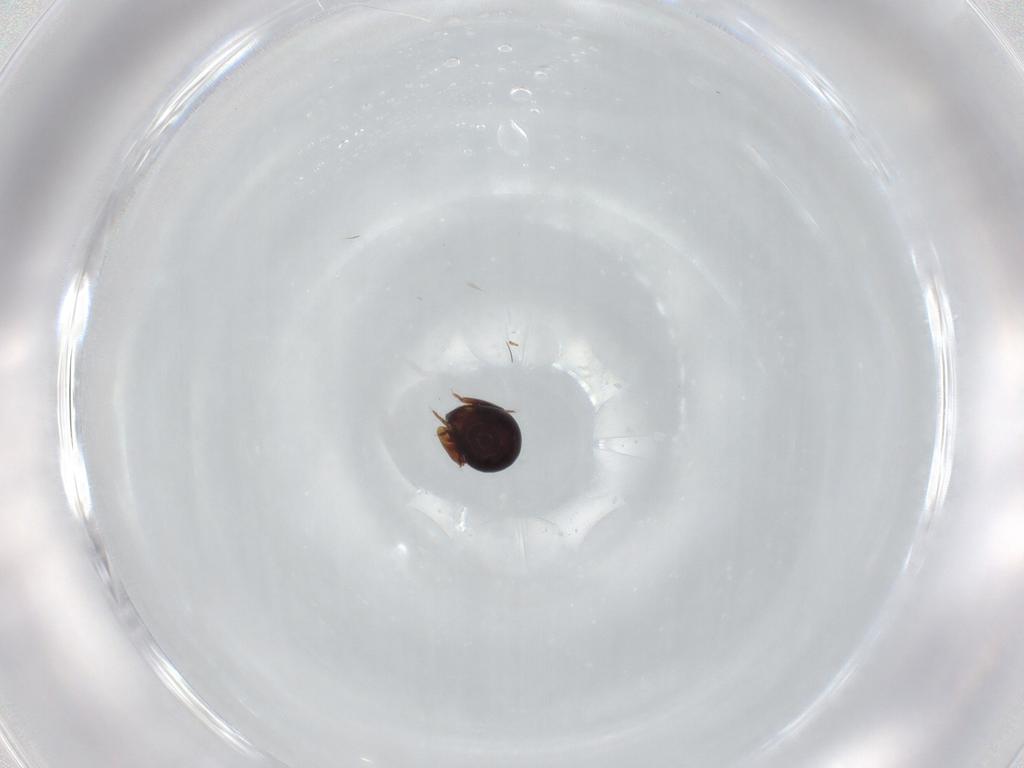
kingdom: Animalia
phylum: Arthropoda
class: Arachnida
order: Sarcoptiformes
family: Ceratozetidae
